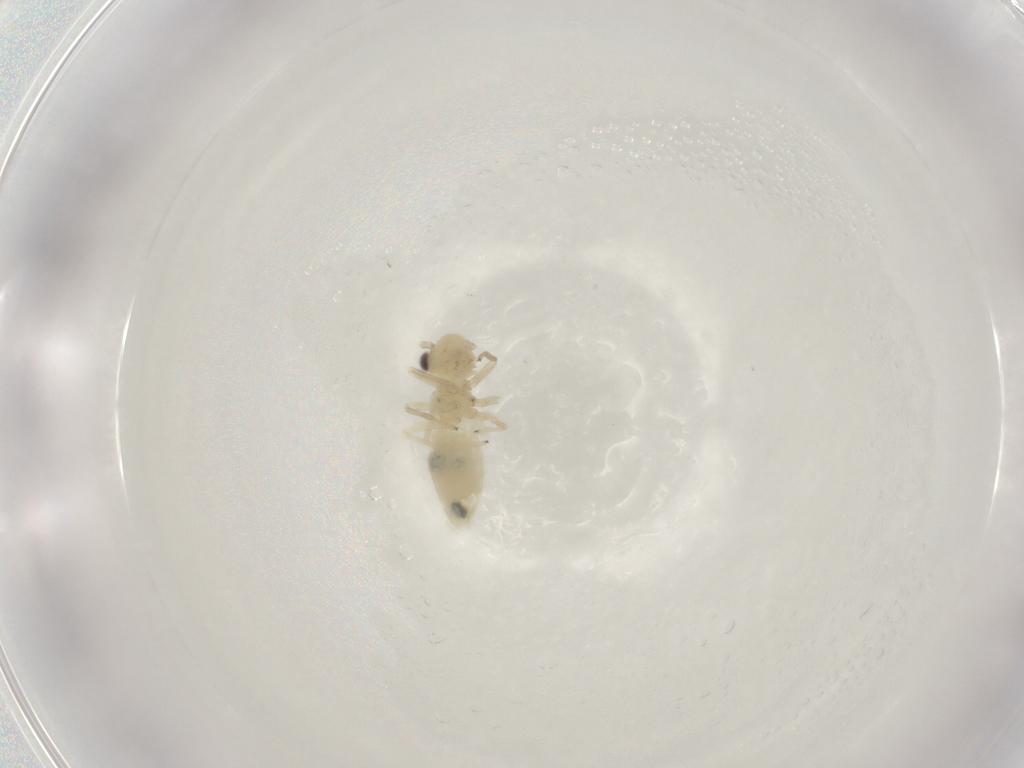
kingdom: Animalia
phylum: Arthropoda
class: Insecta
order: Psocodea
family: Caeciliusidae
